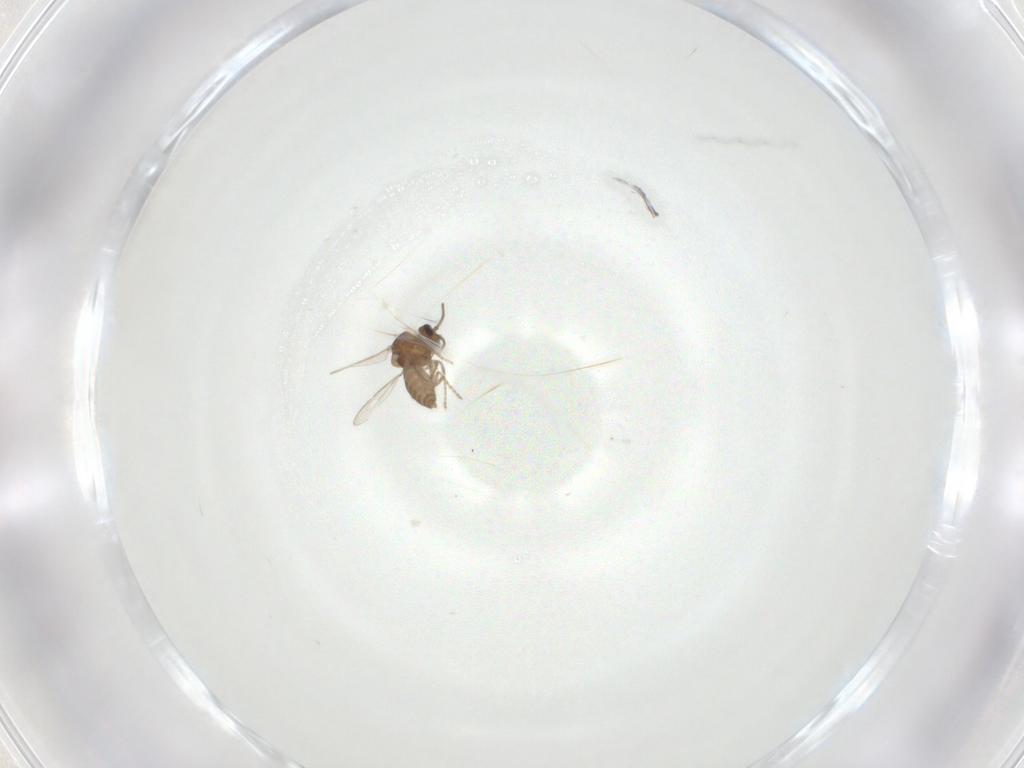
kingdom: Animalia
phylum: Arthropoda
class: Insecta
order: Diptera
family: Ceratopogonidae
